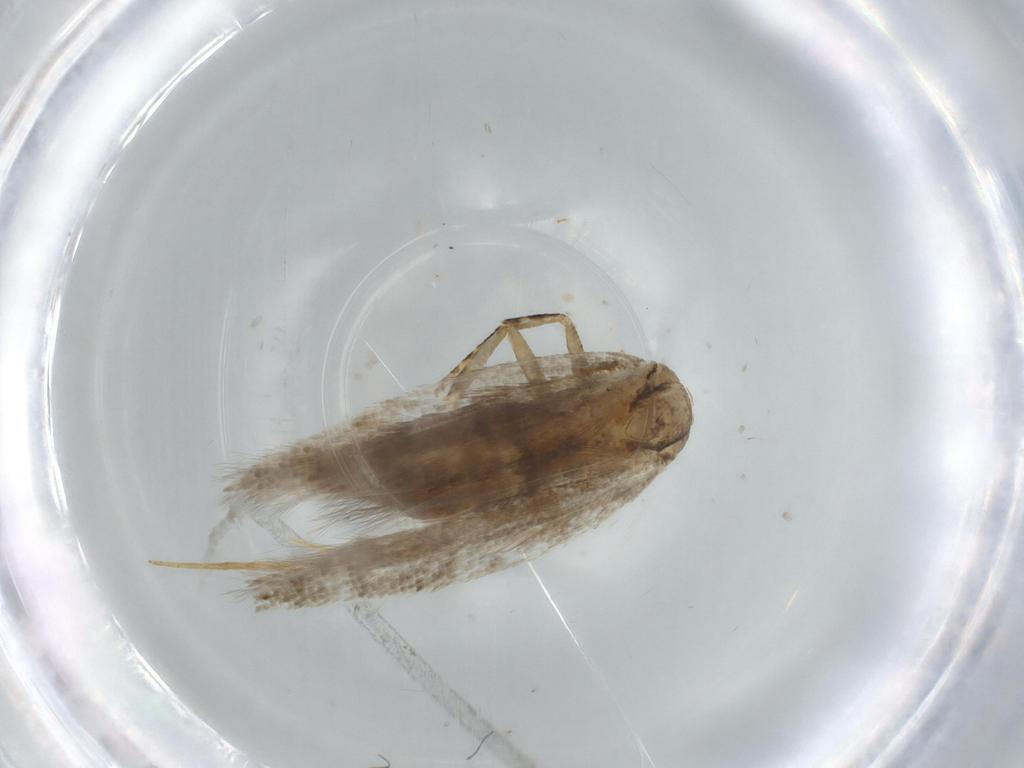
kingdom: Animalia
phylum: Arthropoda
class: Insecta
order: Lepidoptera
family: Gelechiidae
